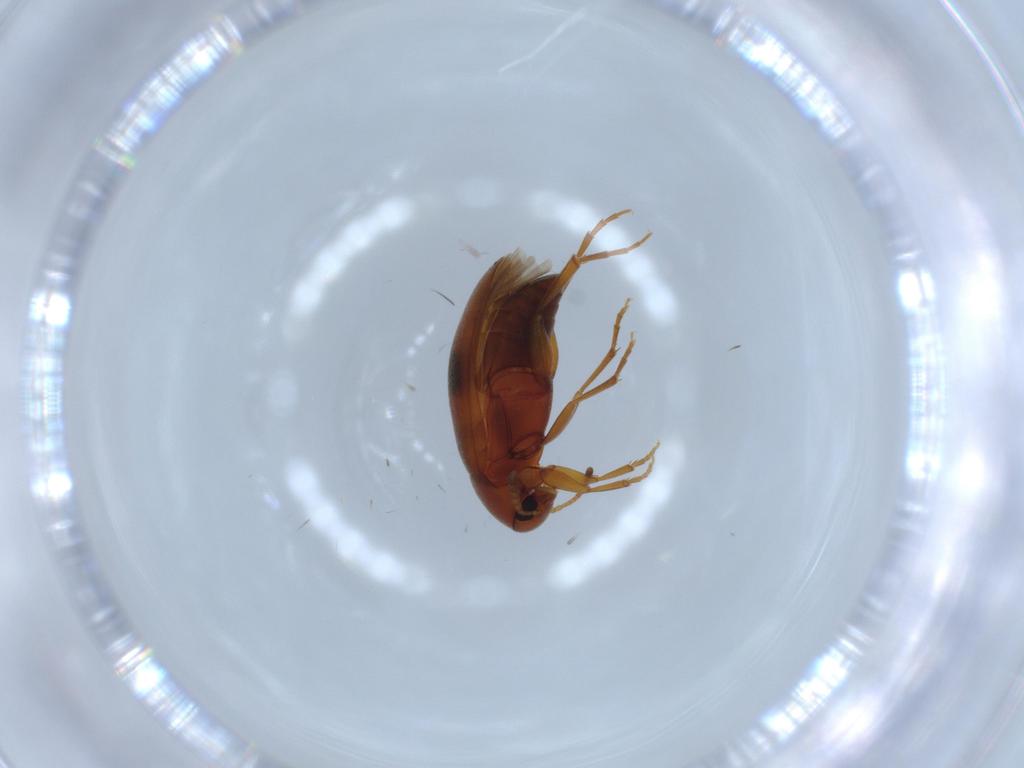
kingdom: Animalia
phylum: Arthropoda
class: Insecta
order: Coleoptera
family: Scraptiidae
